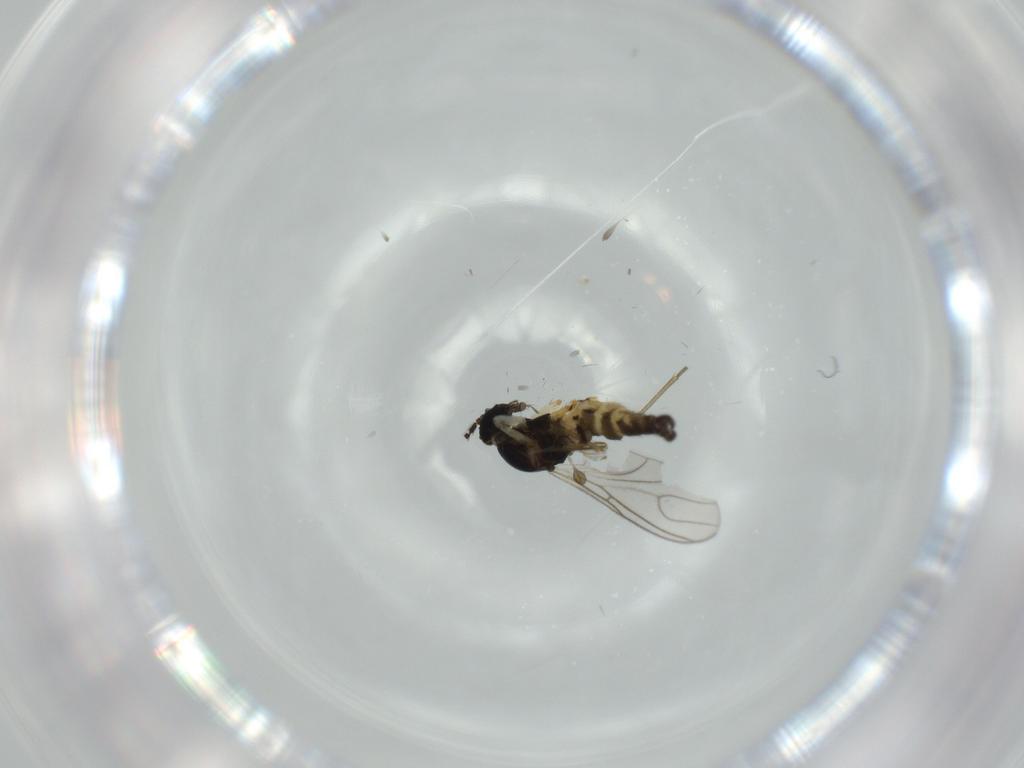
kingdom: Animalia
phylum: Arthropoda
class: Insecta
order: Diptera
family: Sciaridae
